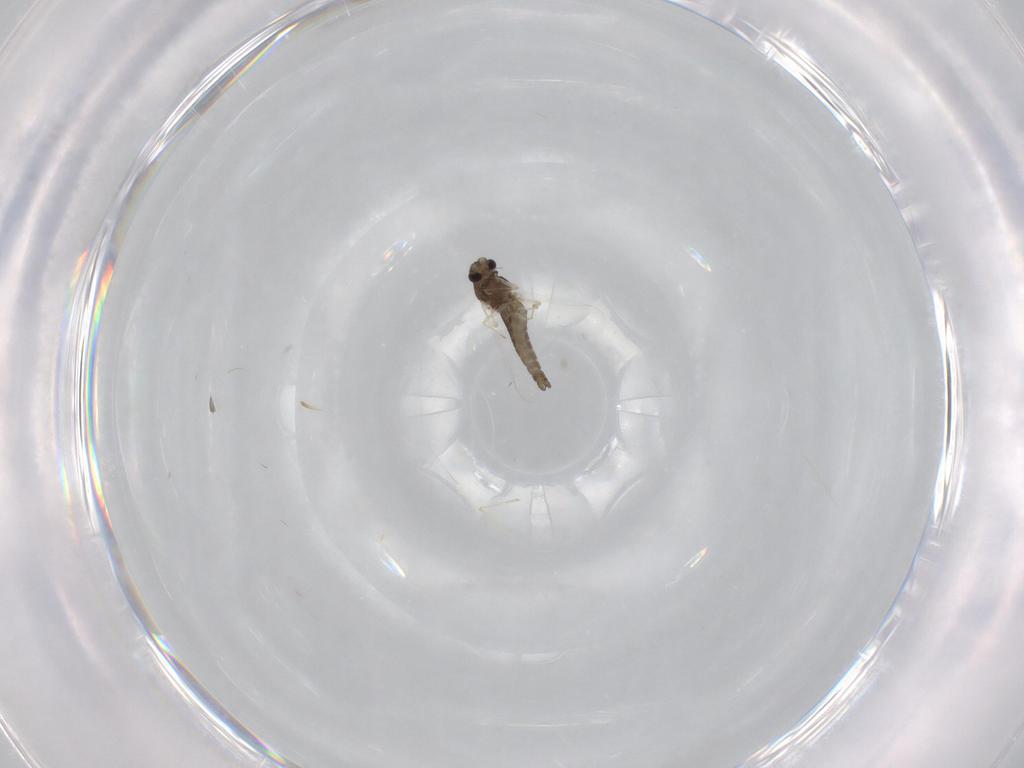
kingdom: Animalia
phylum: Arthropoda
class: Insecta
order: Diptera
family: Chironomidae
